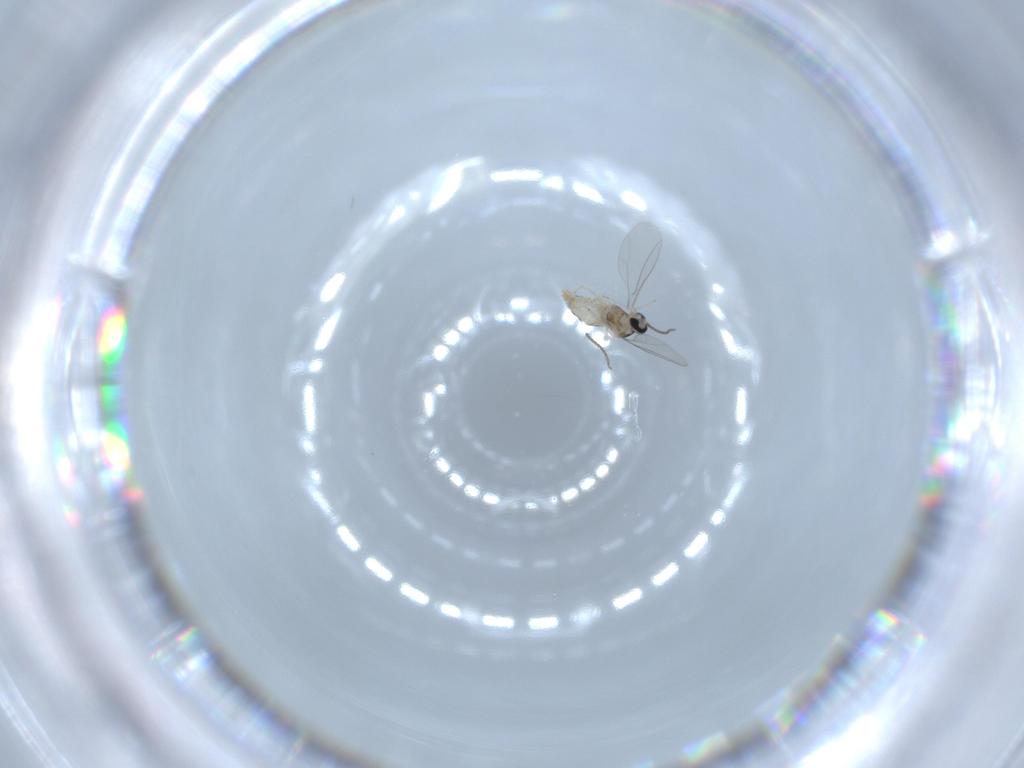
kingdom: Animalia
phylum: Arthropoda
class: Insecta
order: Diptera
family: Cecidomyiidae
